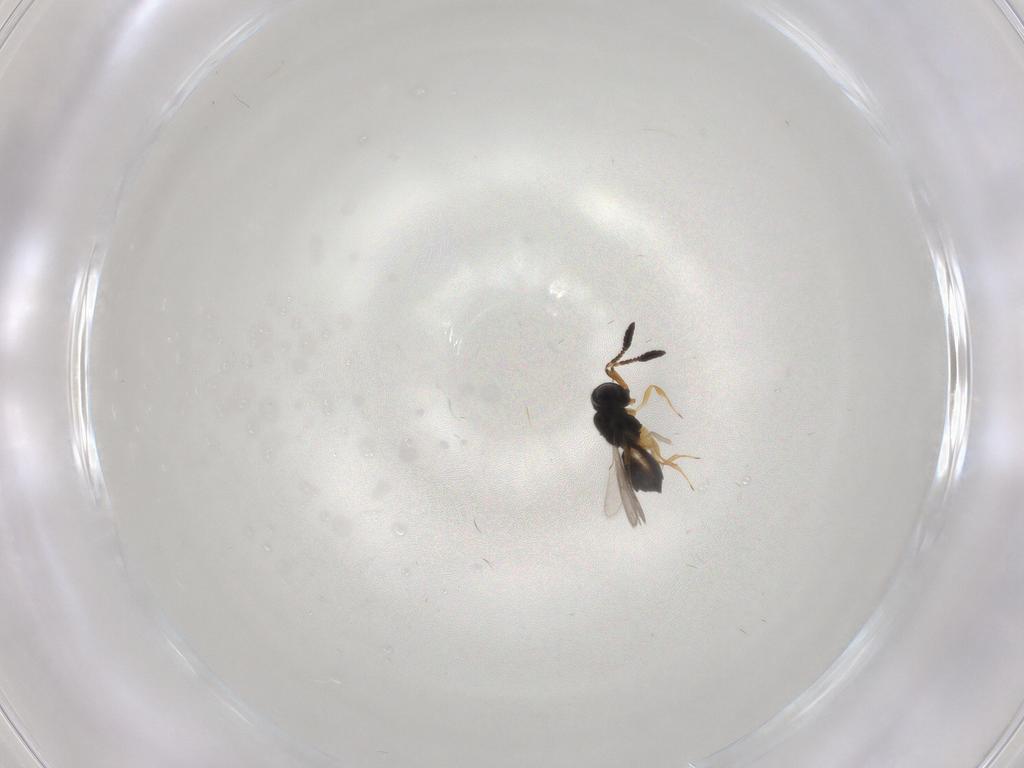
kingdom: Animalia
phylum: Arthropoda
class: Insecta
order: Hymenoptera
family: Scelionidae
